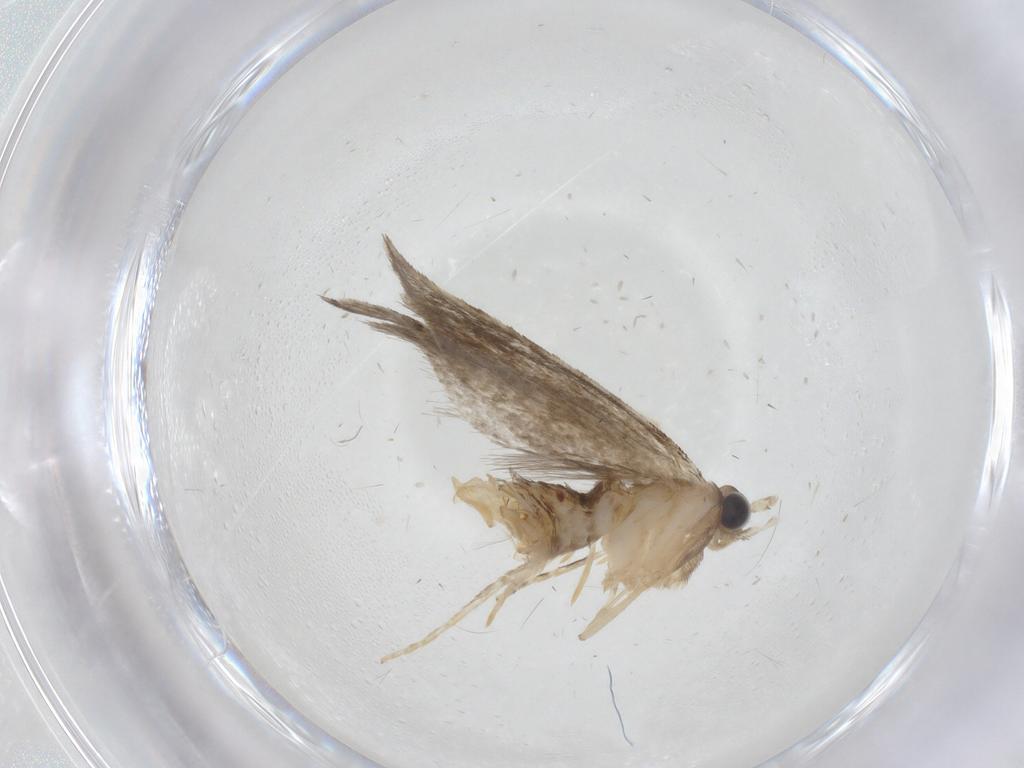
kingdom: Animalia
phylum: Arthropoda
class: Insecta
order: Lepidoptera
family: Tineidae
